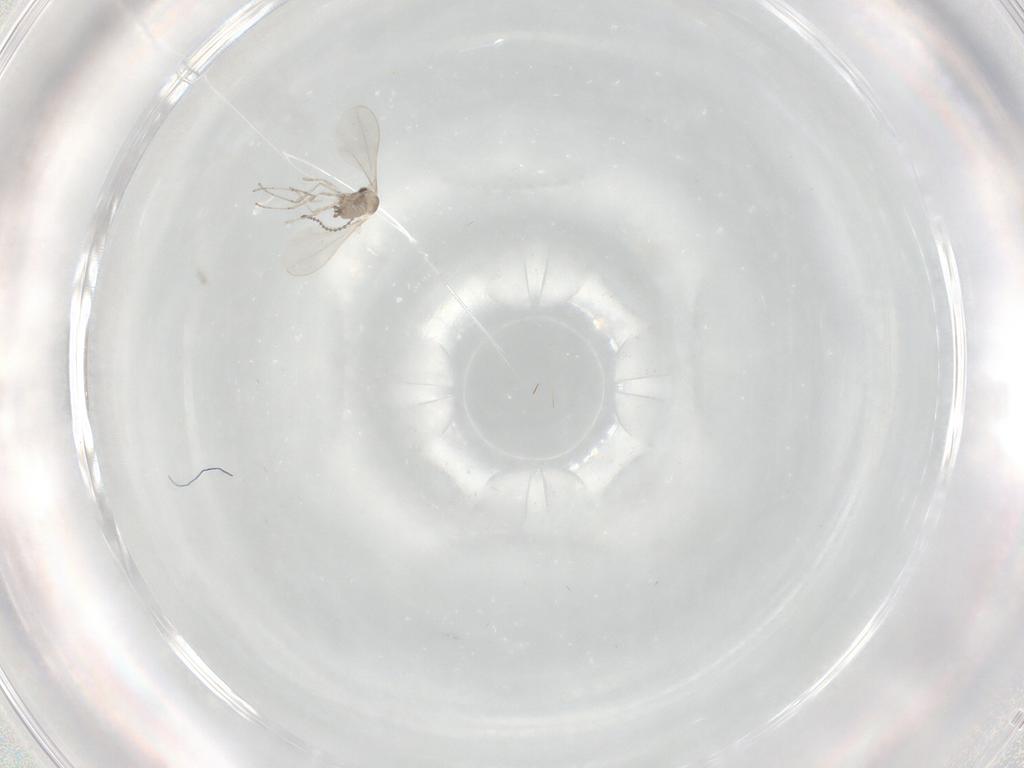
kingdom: Animalia
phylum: Arthropoda
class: Insecta
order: Diptera
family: Cecidomyiidae
